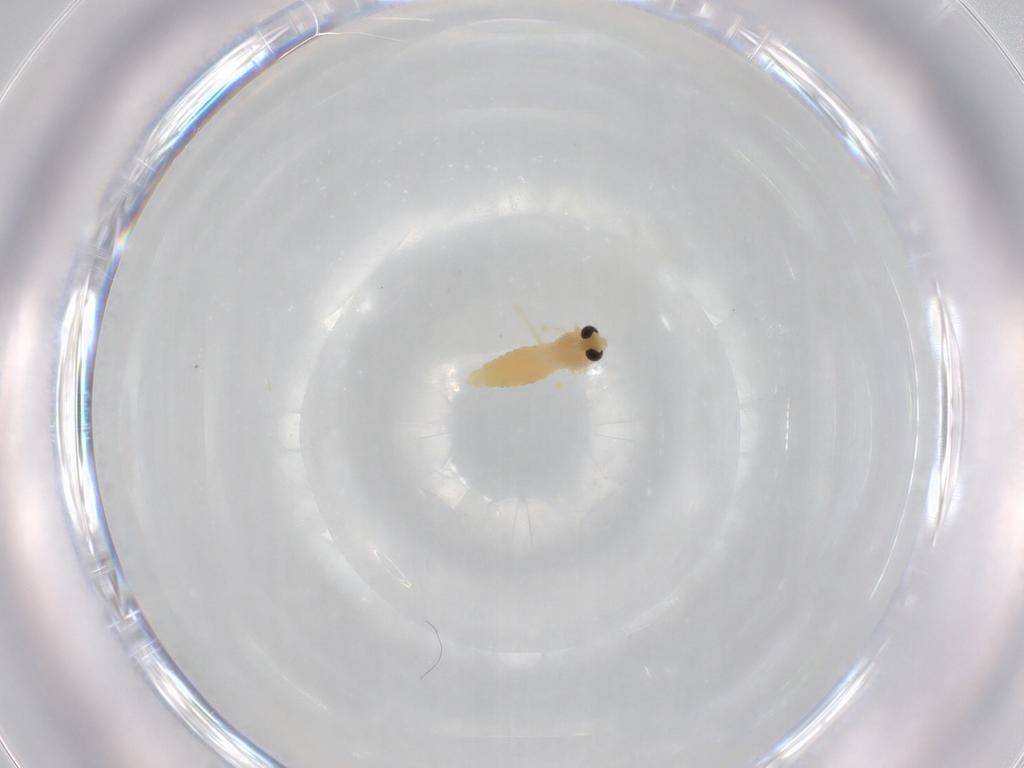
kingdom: Animalia
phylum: Arthropoda
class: Insecta
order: Diptera
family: Chironomidae
